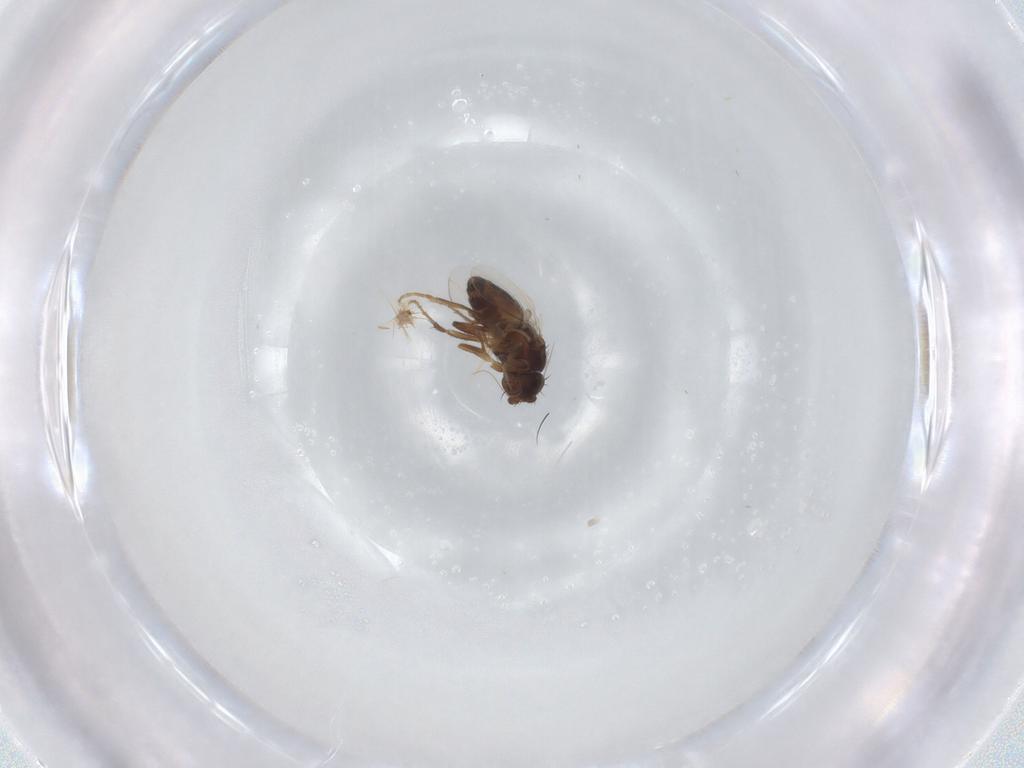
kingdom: Animalia
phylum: Arthropoda
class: Insecta
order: Diptera
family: Sphaeroceridae
